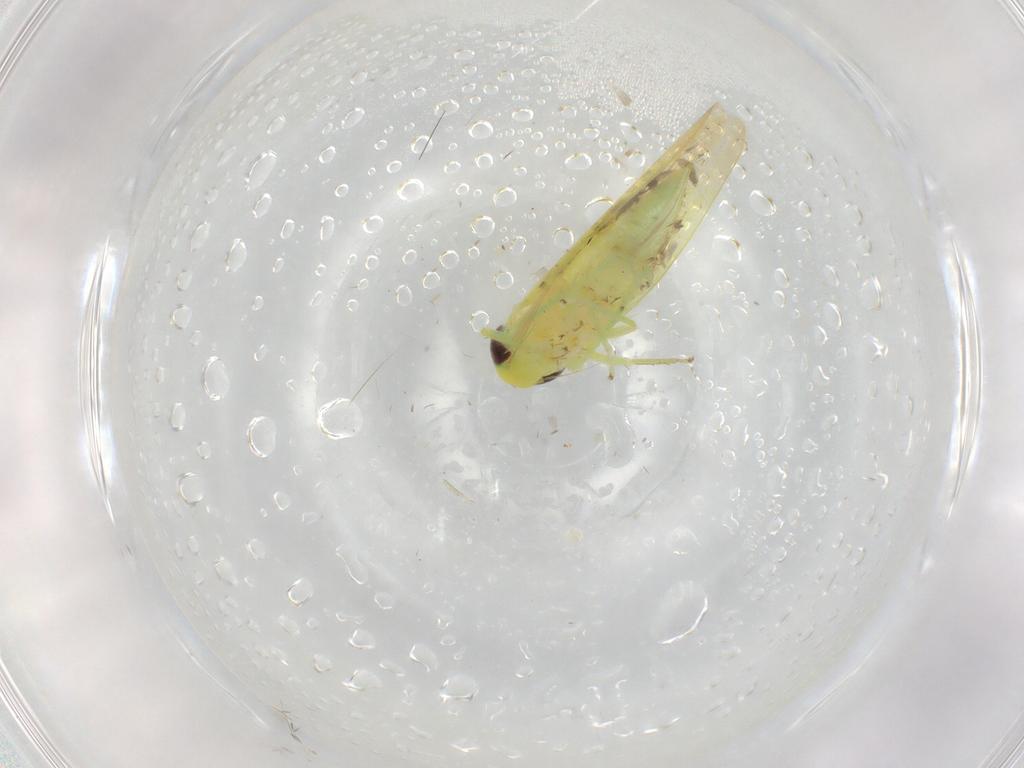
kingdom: Animalia
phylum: Arthropoda
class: Insecta
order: Hemiptera
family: Cicadellidae
